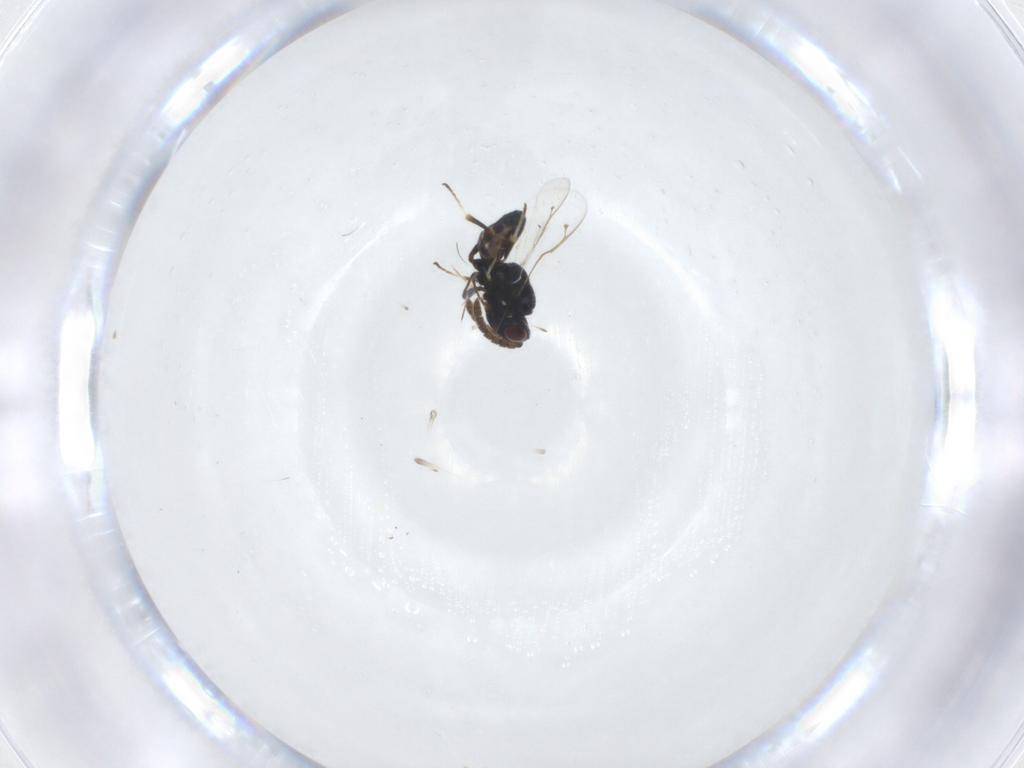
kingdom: Animalia
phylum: Arthropoda
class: Insecta
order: Hymenoptera
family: Pteromalidae
